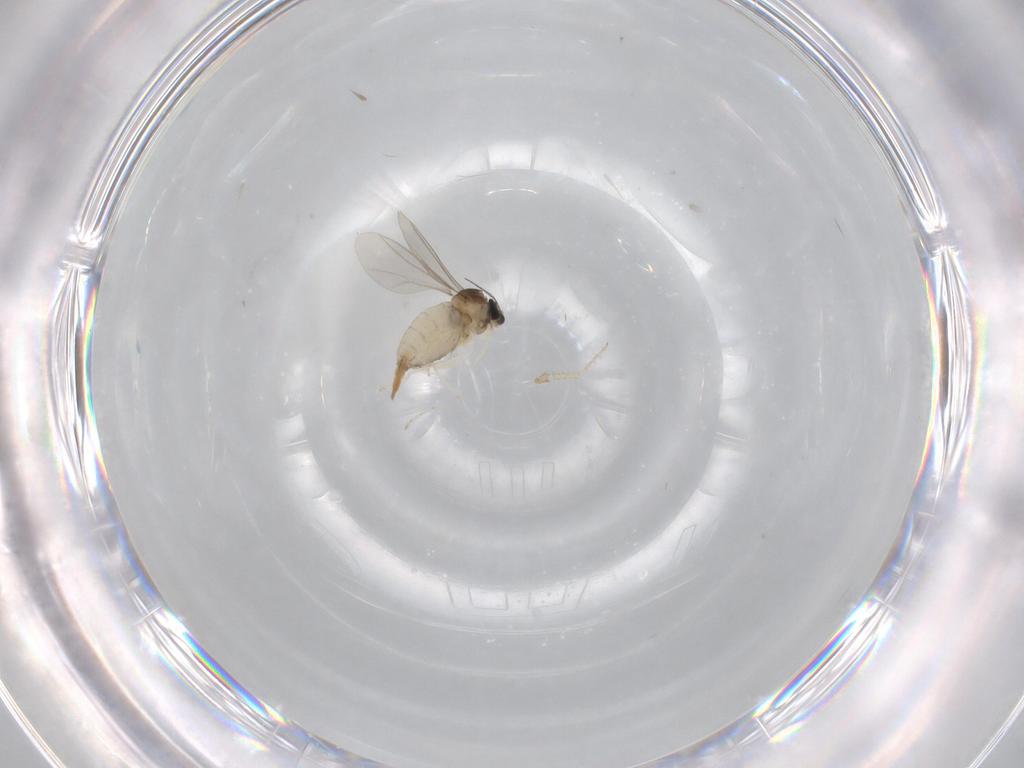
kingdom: Animalia
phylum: Arthropoda
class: Insecta
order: Diptera
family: Cecidomyiidae
